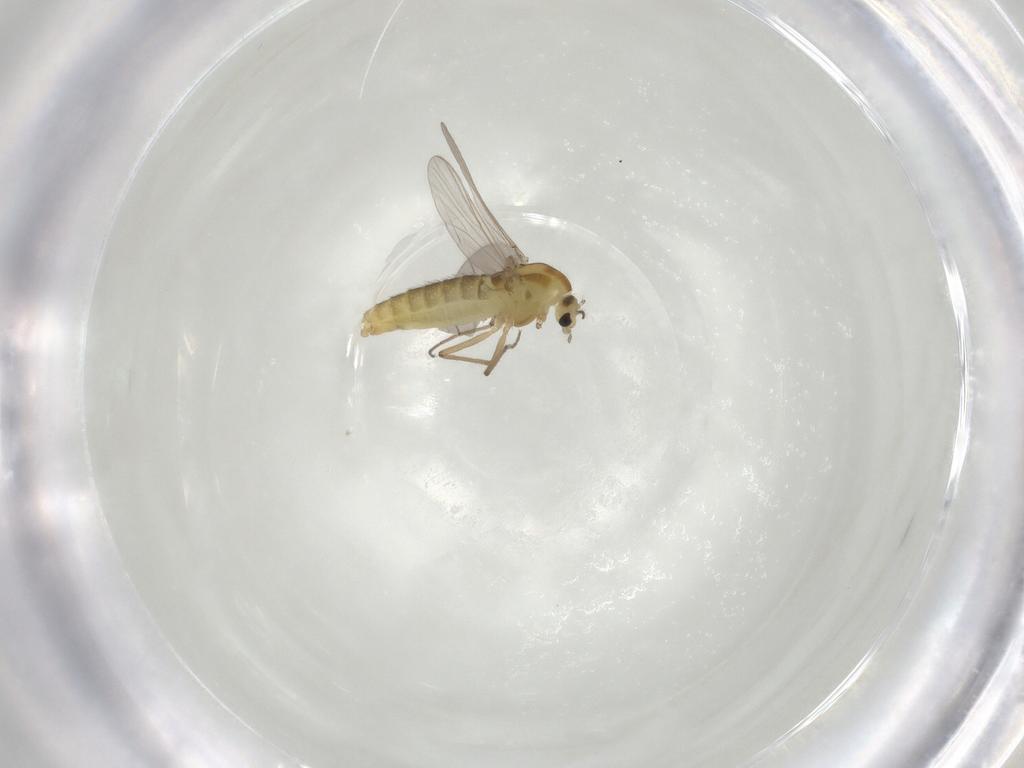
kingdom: Animalia
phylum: Arthropoda
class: Insecta
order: Diptera
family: Chironomidae
